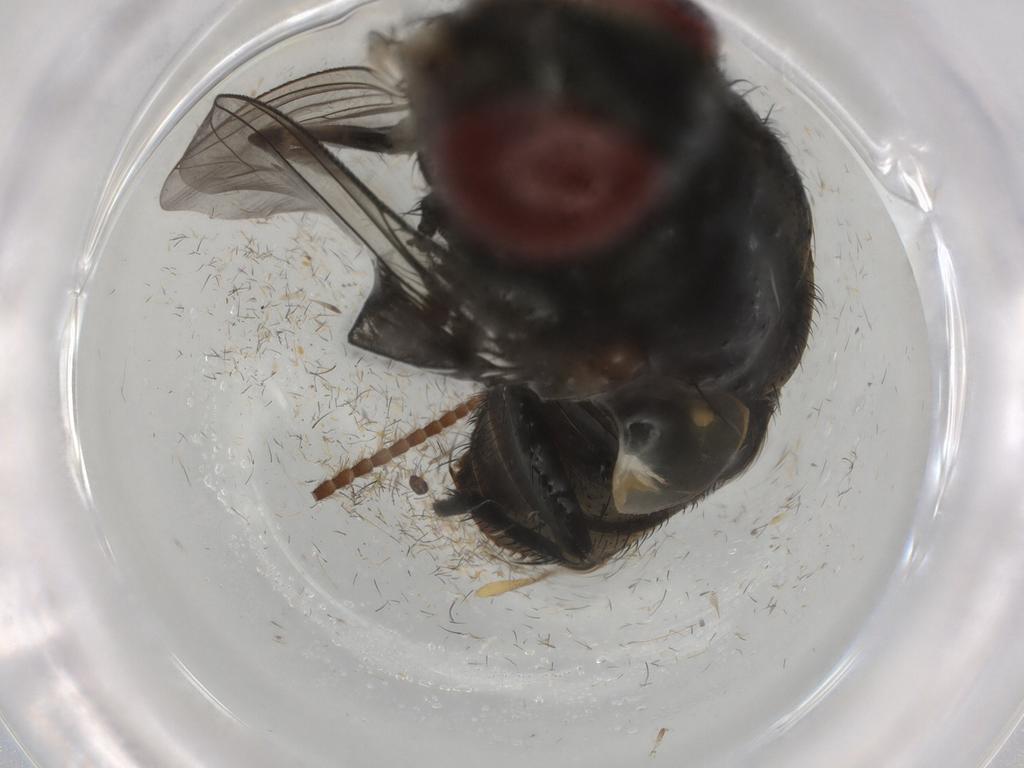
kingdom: Animalia
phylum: Arthropoda
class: Insecta
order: Diptera
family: Sarcophagidae
